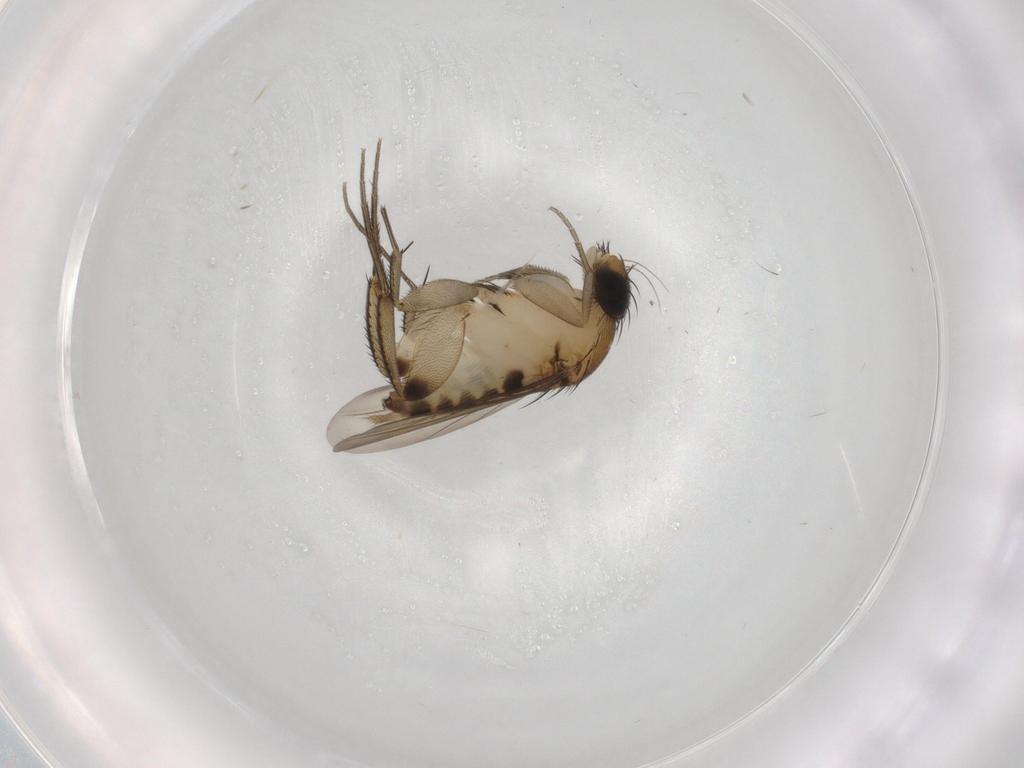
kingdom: Animalia
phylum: Arthropoda
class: Insecta
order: Diptera
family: Phoridae
